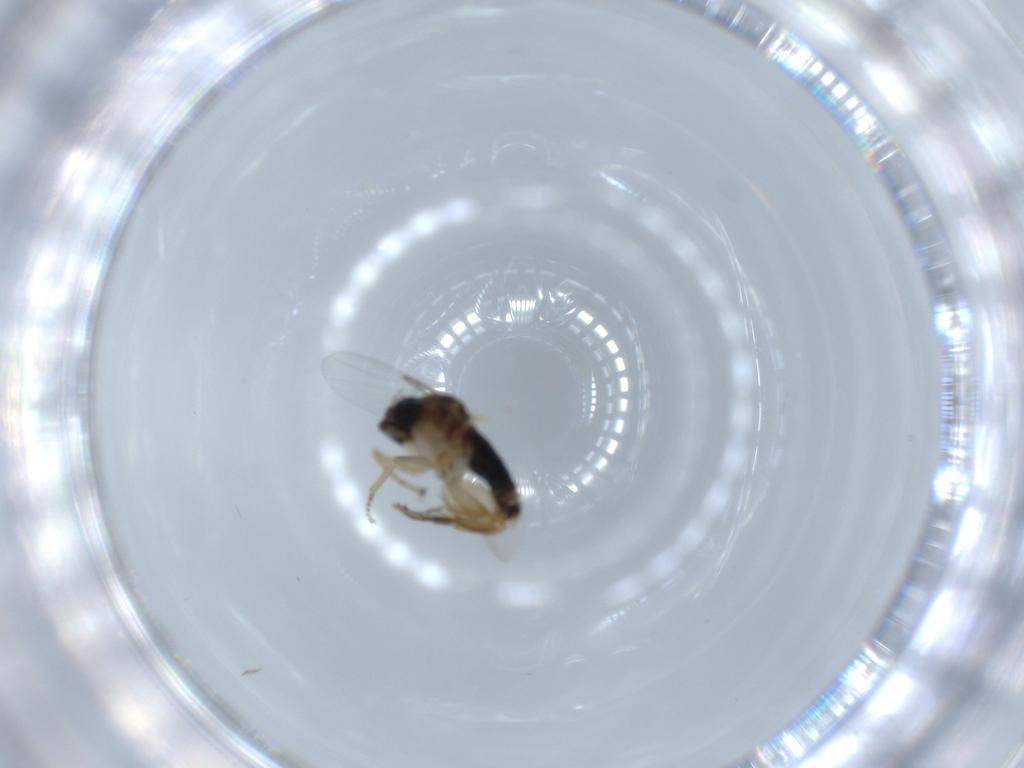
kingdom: Animalia
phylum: Arthropoda
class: Insecta
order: Diptera
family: Phoridae
